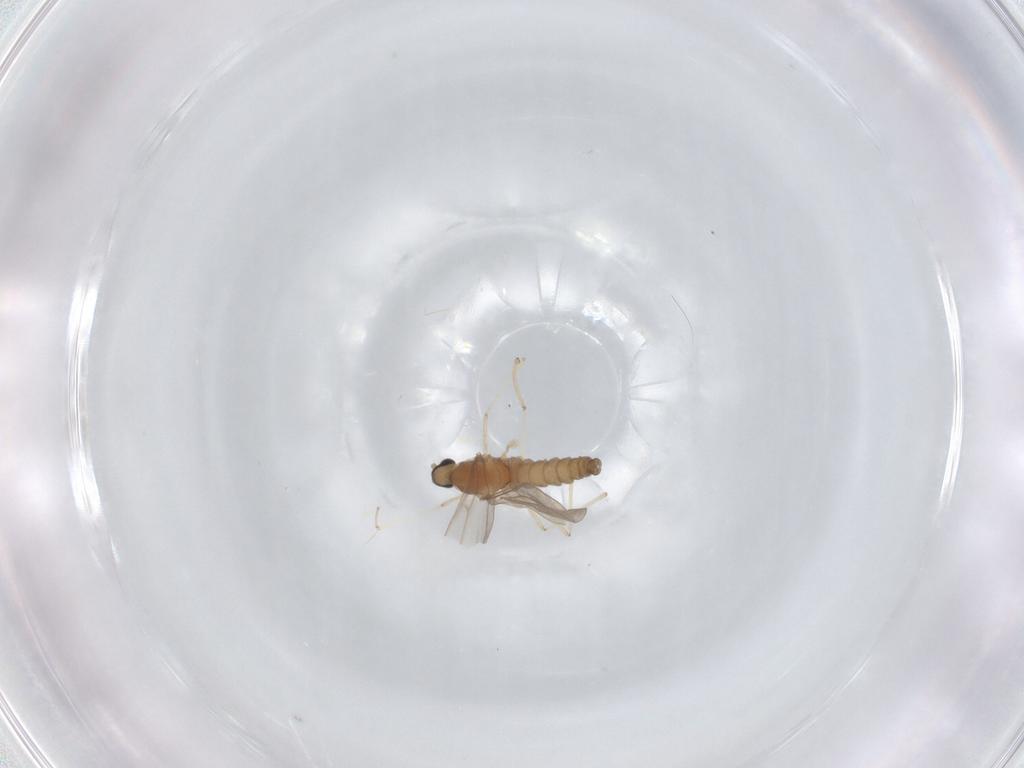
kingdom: Animalia
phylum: Arthropoda
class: Insecta
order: Diptera
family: Cecidomyiidae
